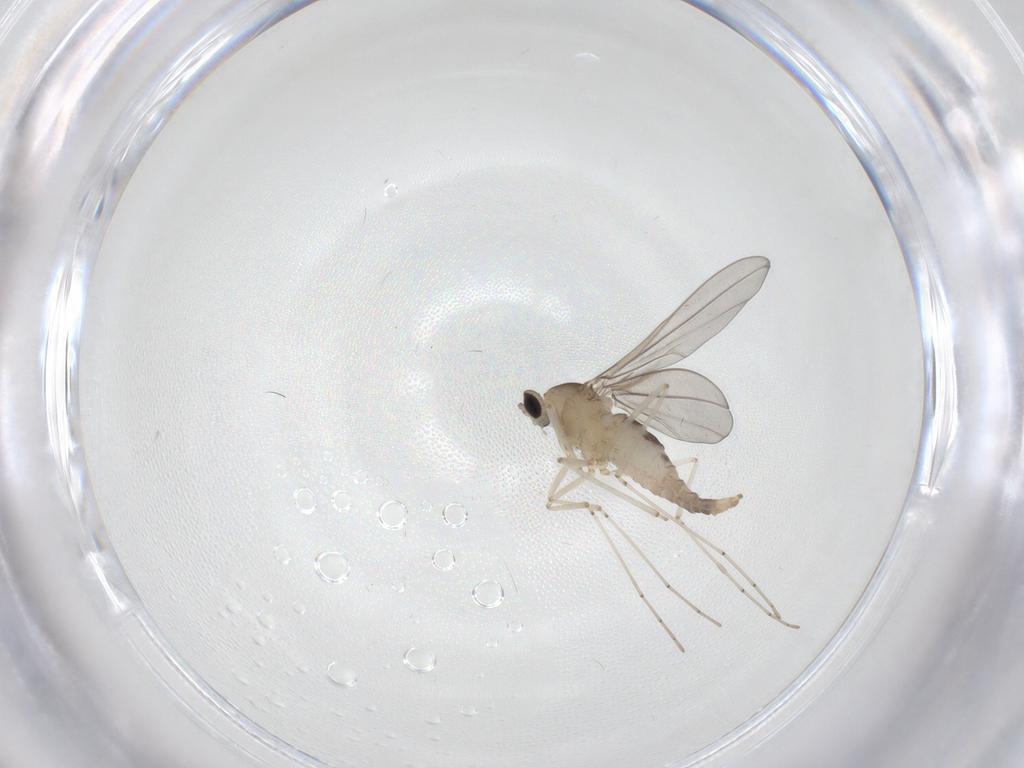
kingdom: Animalia
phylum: Arthropoda
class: Insecta
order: Diptera
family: Cecidomyiidae
